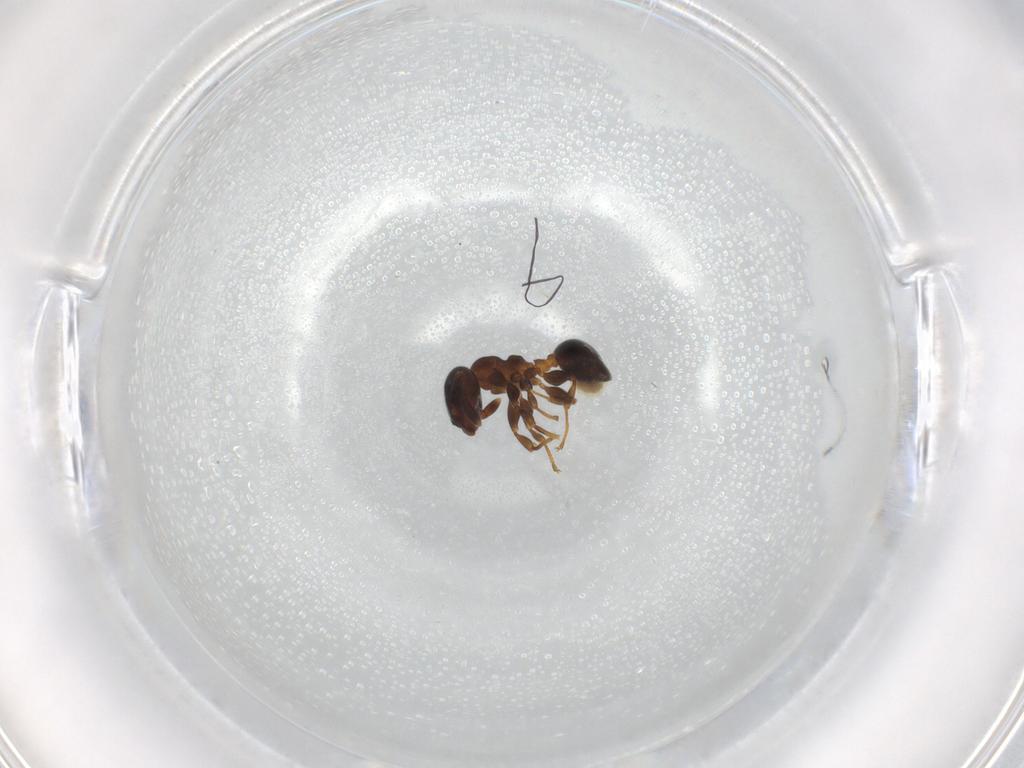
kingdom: Animalia
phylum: Arthropoda
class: Insecta
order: Hymenoptera
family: Formicidae
